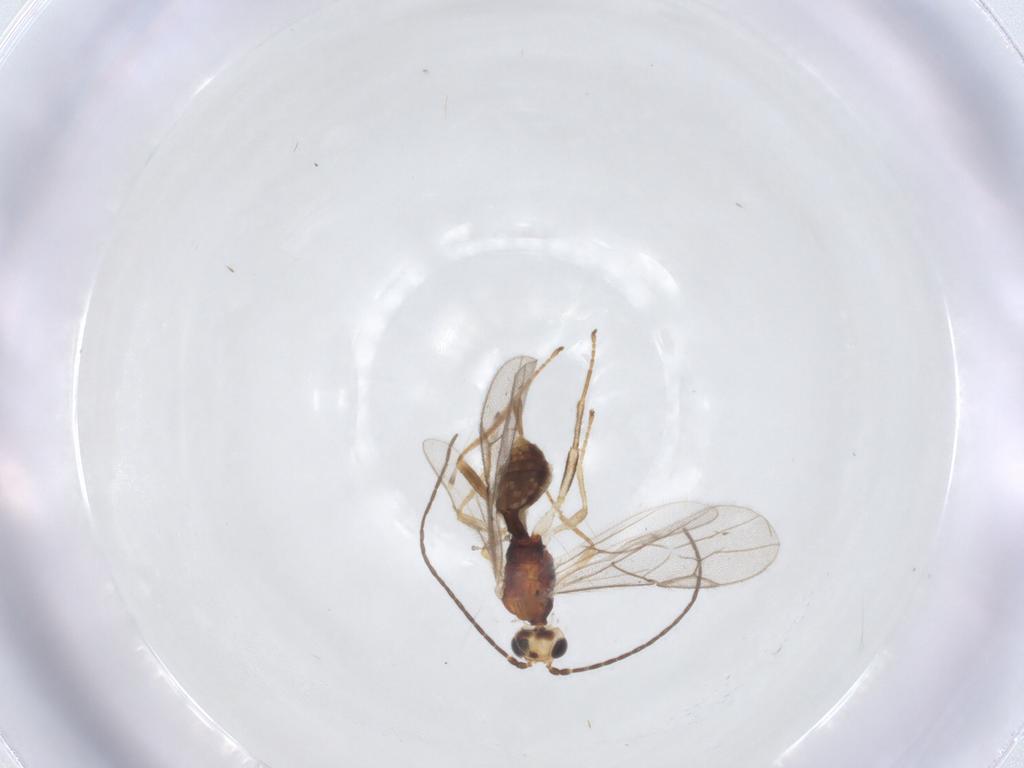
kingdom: Animalia
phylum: Arthropoda
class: Insecta
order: Hymenoptera
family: Braconidae
